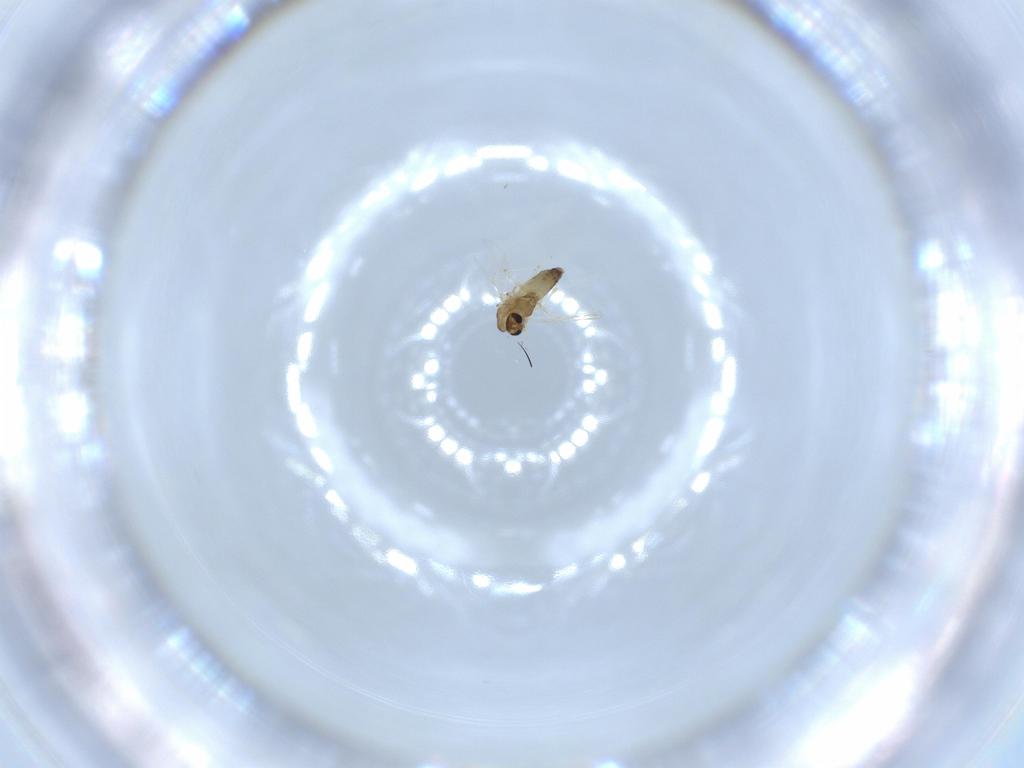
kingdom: Animalia
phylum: Arthropoda
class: Insecta
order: Diptera
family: Chironomidae
